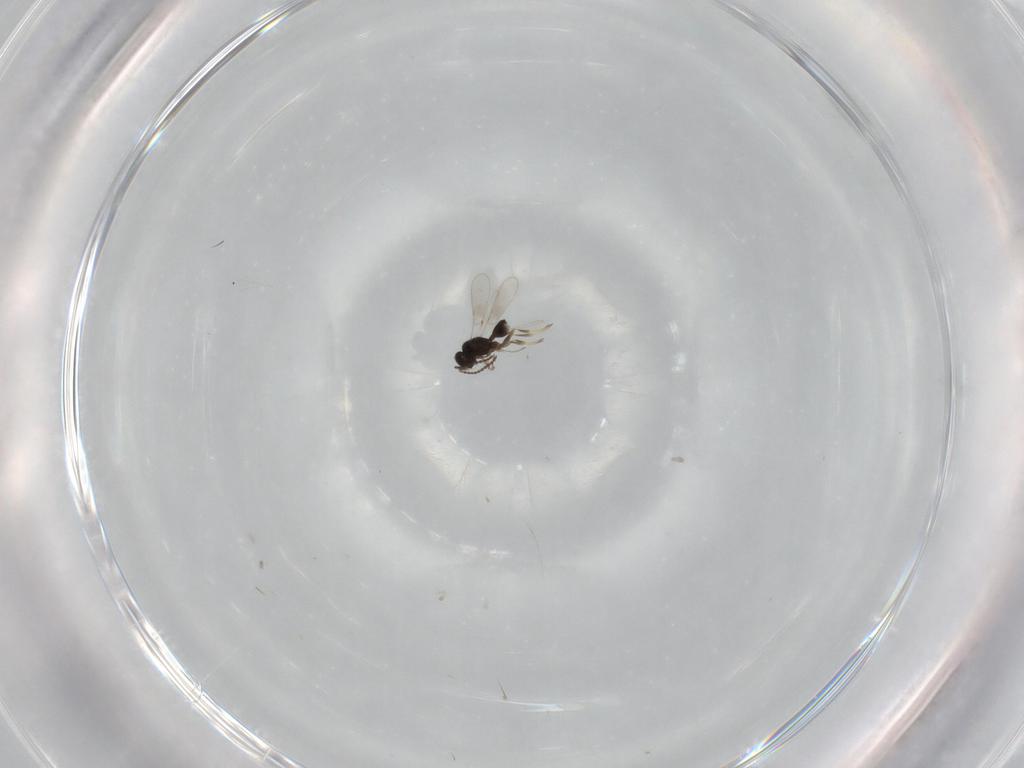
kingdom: Animalia
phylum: Arthropoda
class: Insecta
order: Hymenoptera
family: Scelionidae
